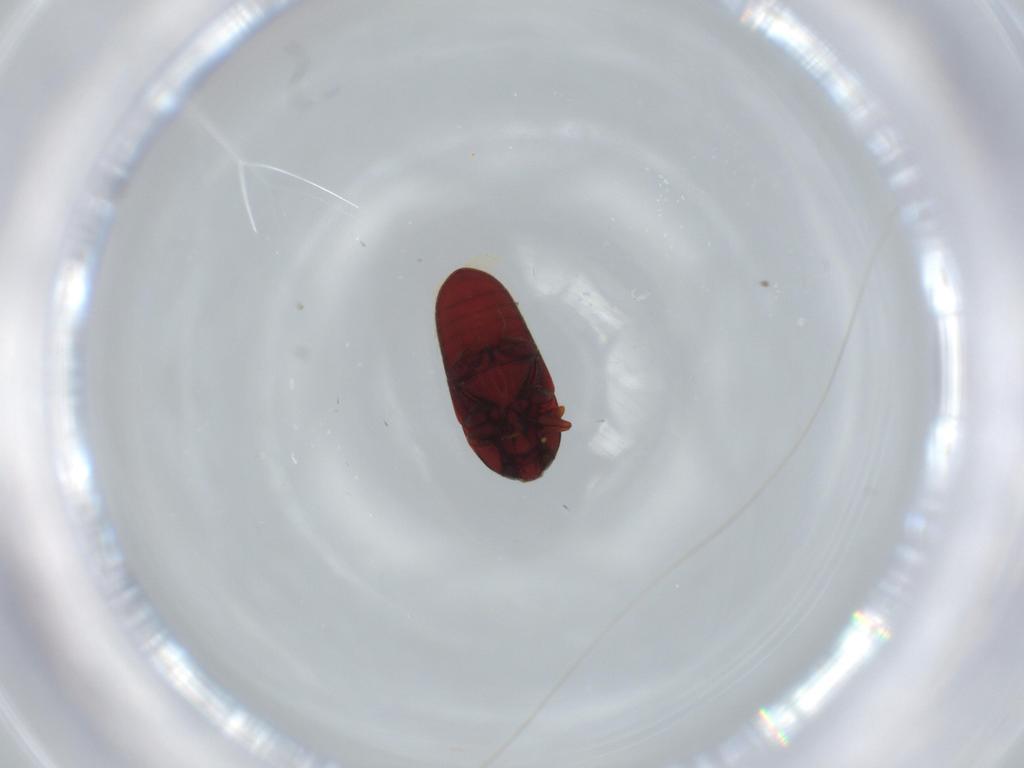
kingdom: Animalia
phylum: Arthropoda
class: Insecta
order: Coleoptera
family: Throscidae
